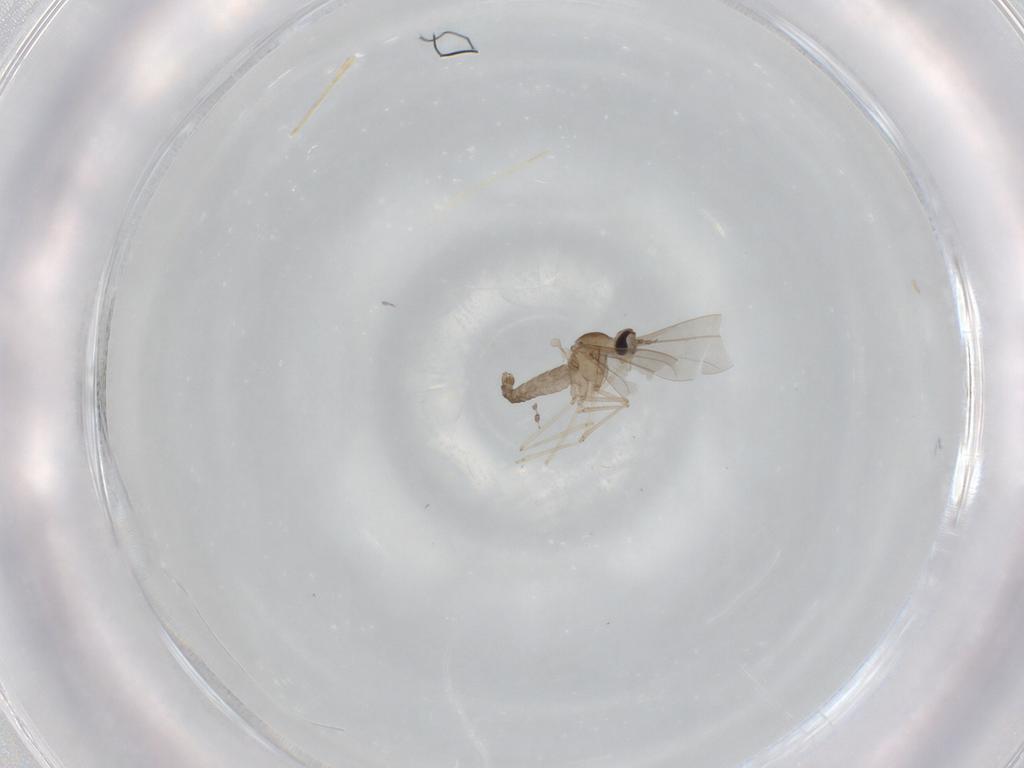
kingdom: Animalia
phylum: Arthropoda
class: Insecta
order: Diptera
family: Cecidomyiidae
